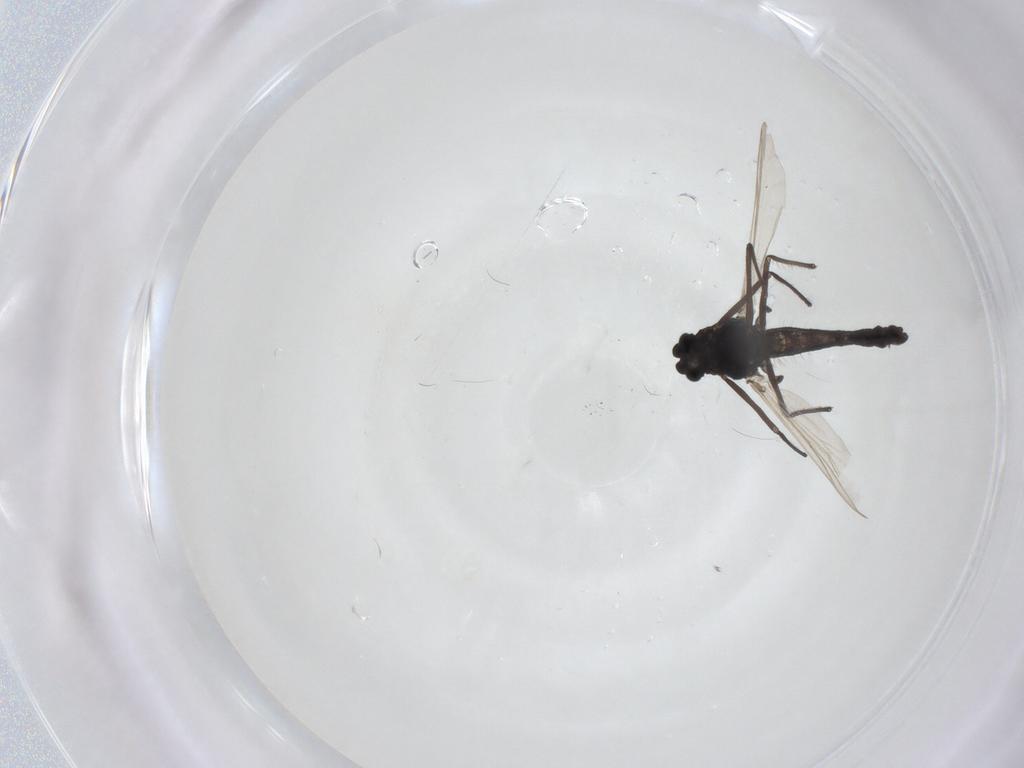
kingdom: Animalia
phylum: Arthropoda
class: Insecta
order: Diptera
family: Chironomidae
